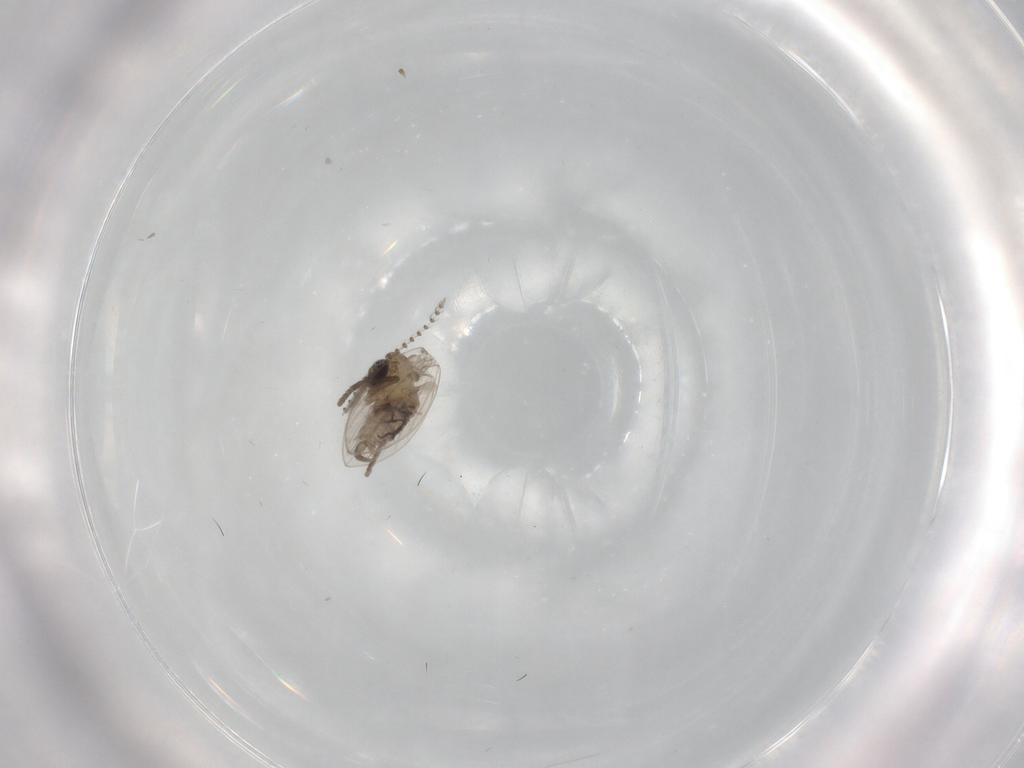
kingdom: Animalia
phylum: Arthropoda
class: Insecta
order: Diptera
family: Psychodidae
